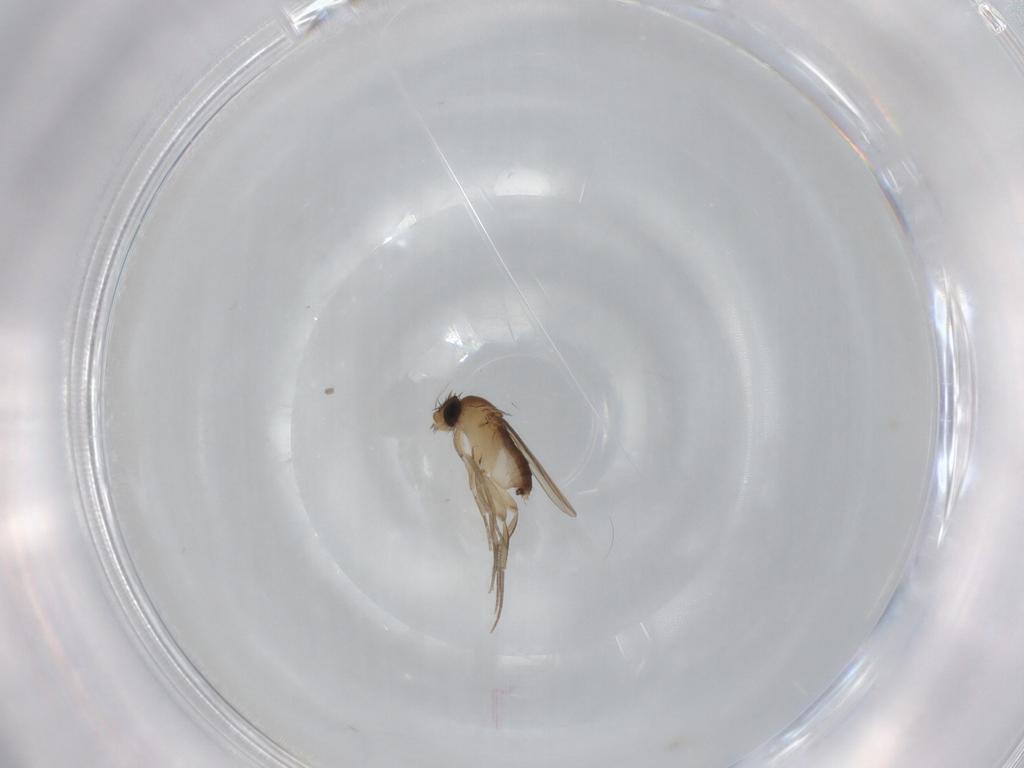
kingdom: Animalia
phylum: Arthropoda
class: Insecta
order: Diptera
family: Phoridae
